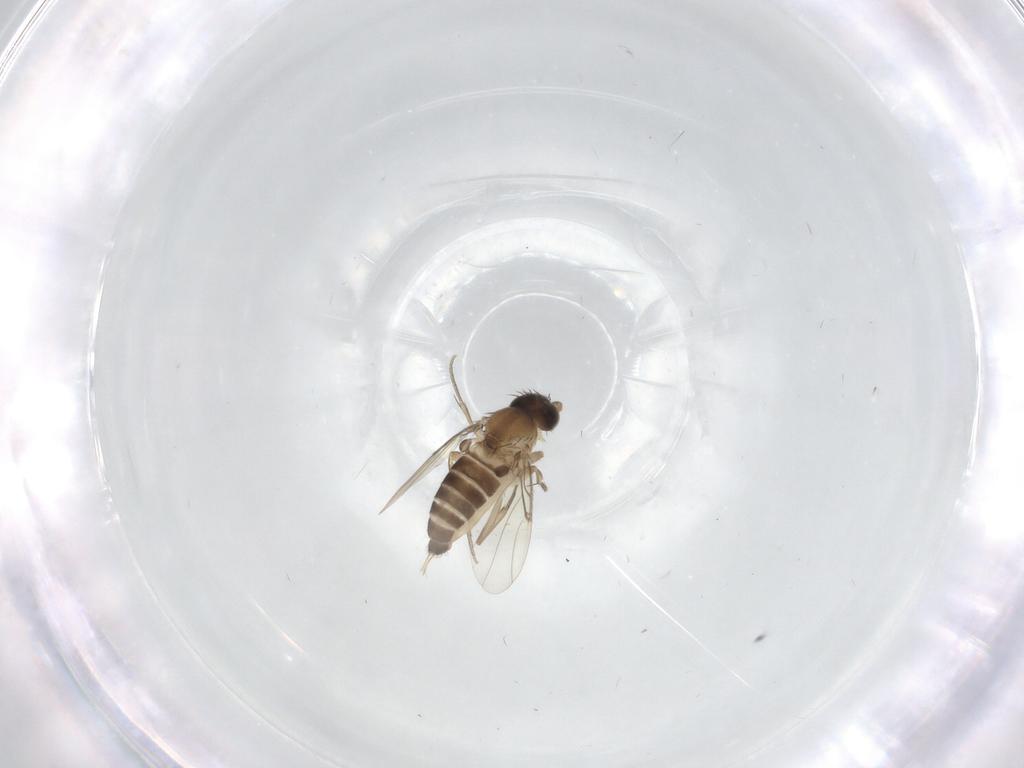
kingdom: Animalia
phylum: Arthropoda
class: Insecta
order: Diptera
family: Phoridae
